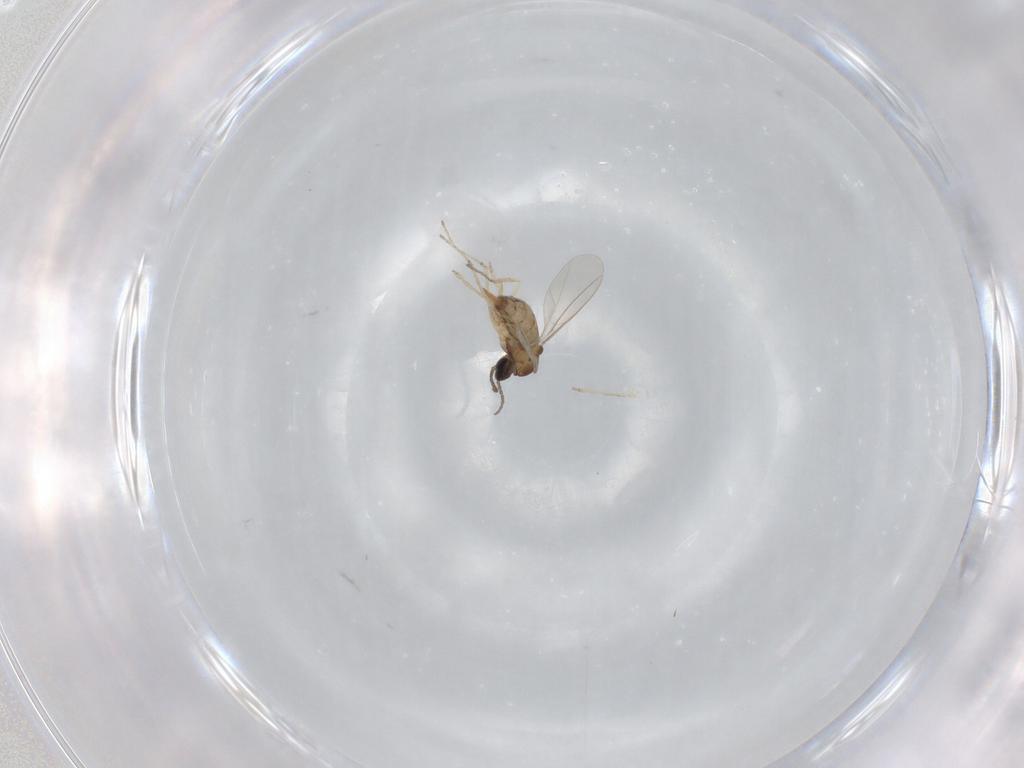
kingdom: Animalia
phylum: Arthropoda
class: Insecta
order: Diptera
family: Cecidomyiidae
